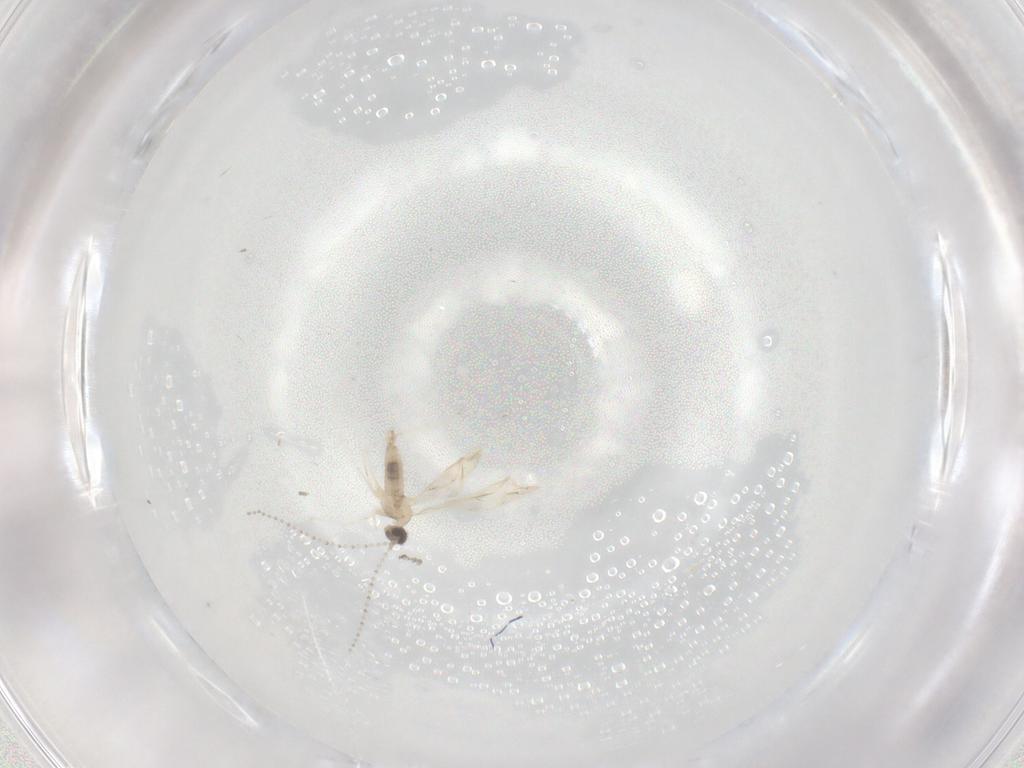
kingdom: Animalia
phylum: Arthropoda
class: Insecta
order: Diptera
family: Cecidomyiidae
